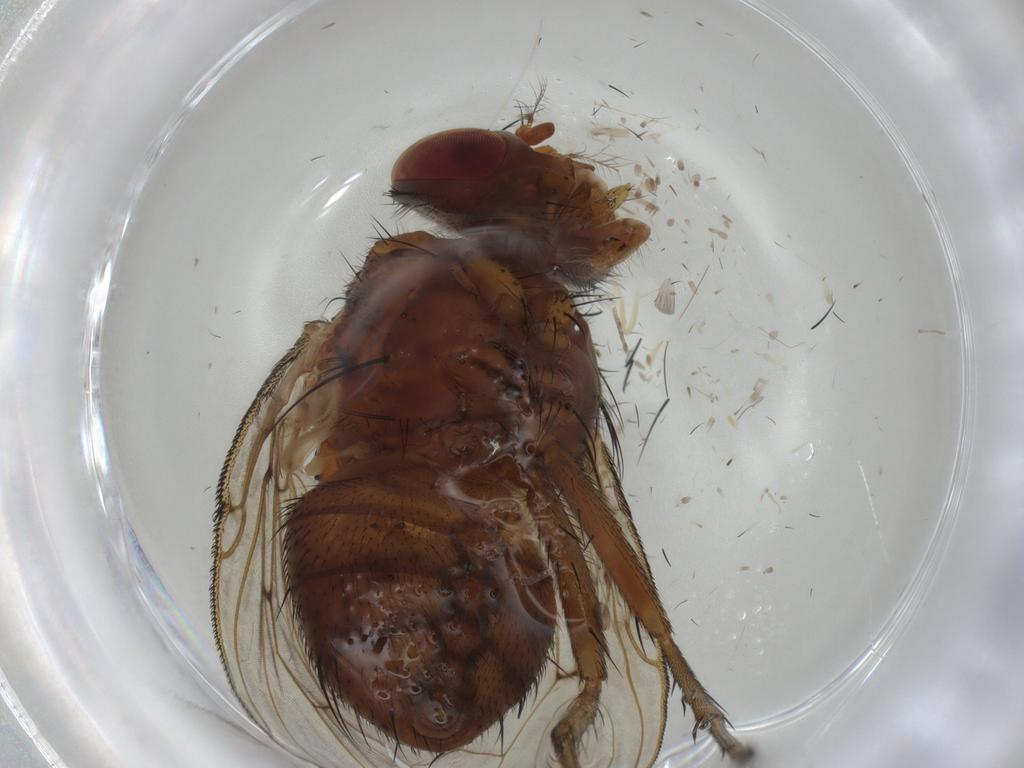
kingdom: Animalia
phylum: Arthropoda
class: Insecta
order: Diptera
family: Tachinidae
